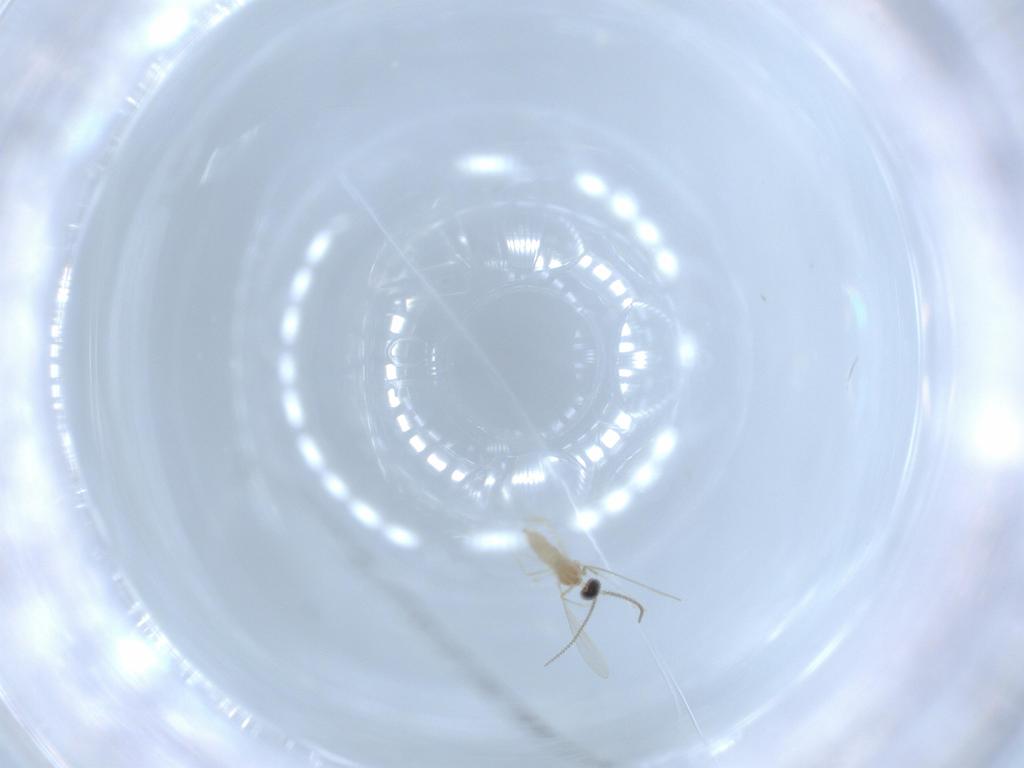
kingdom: Animalia
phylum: Arthropoda
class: Insecta
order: Diptera
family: Cecidomyiidae
